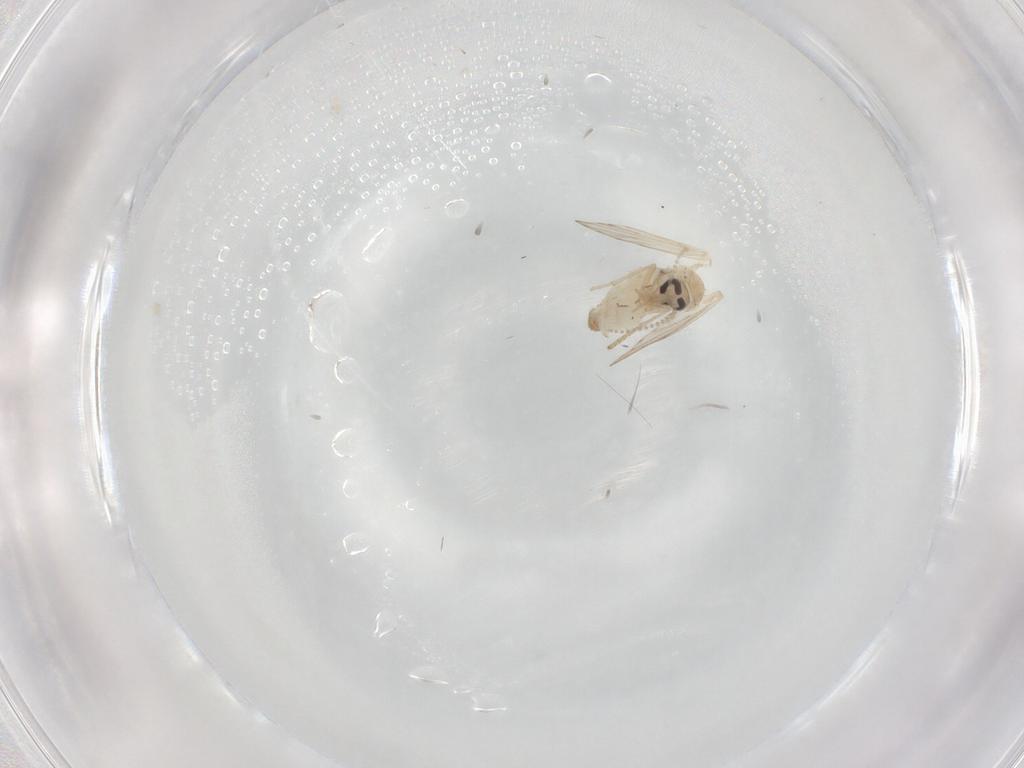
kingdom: Animalia
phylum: Arthropoda
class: Insecta
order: Diptera
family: Psychodidae
